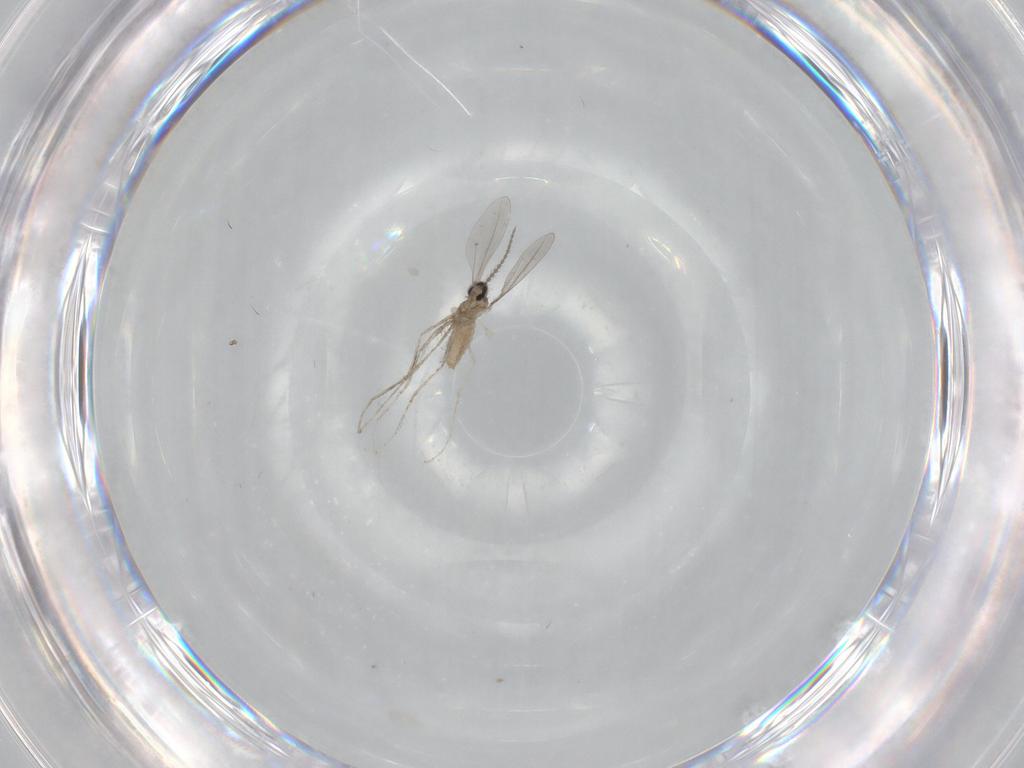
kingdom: Animalia
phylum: Arthropoda
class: Insecta
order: Diptera
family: Cecidomyiidae
